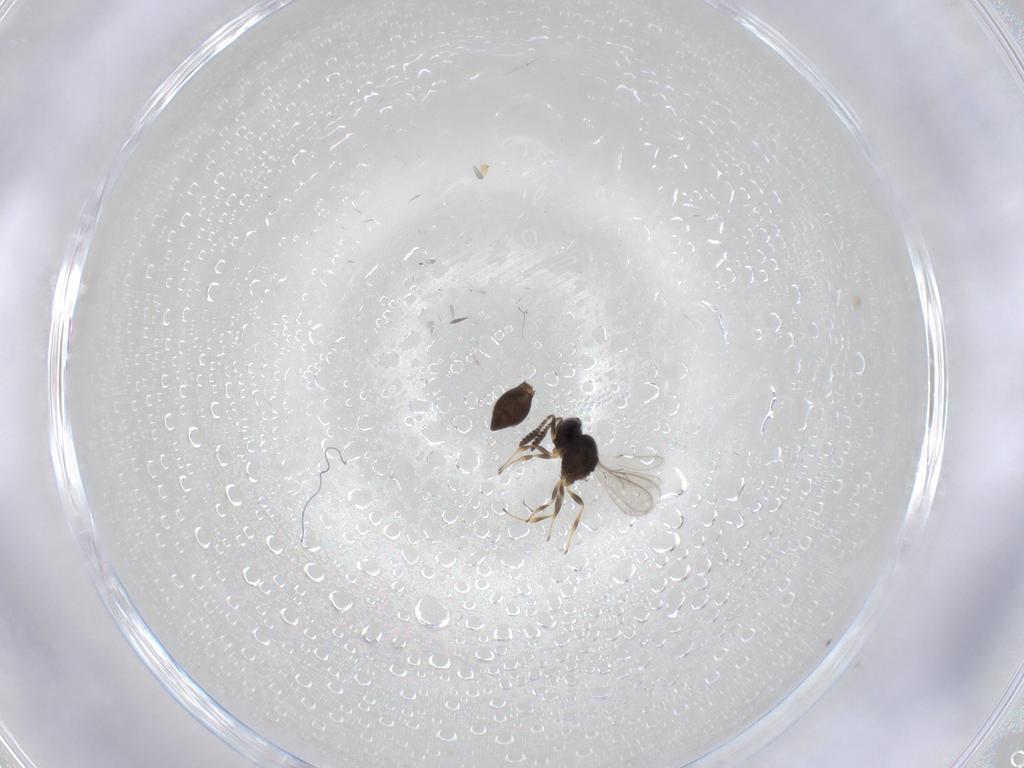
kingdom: Animalia
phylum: Arthropoda
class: Insecta
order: Hymenoptera
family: Scelionidae
